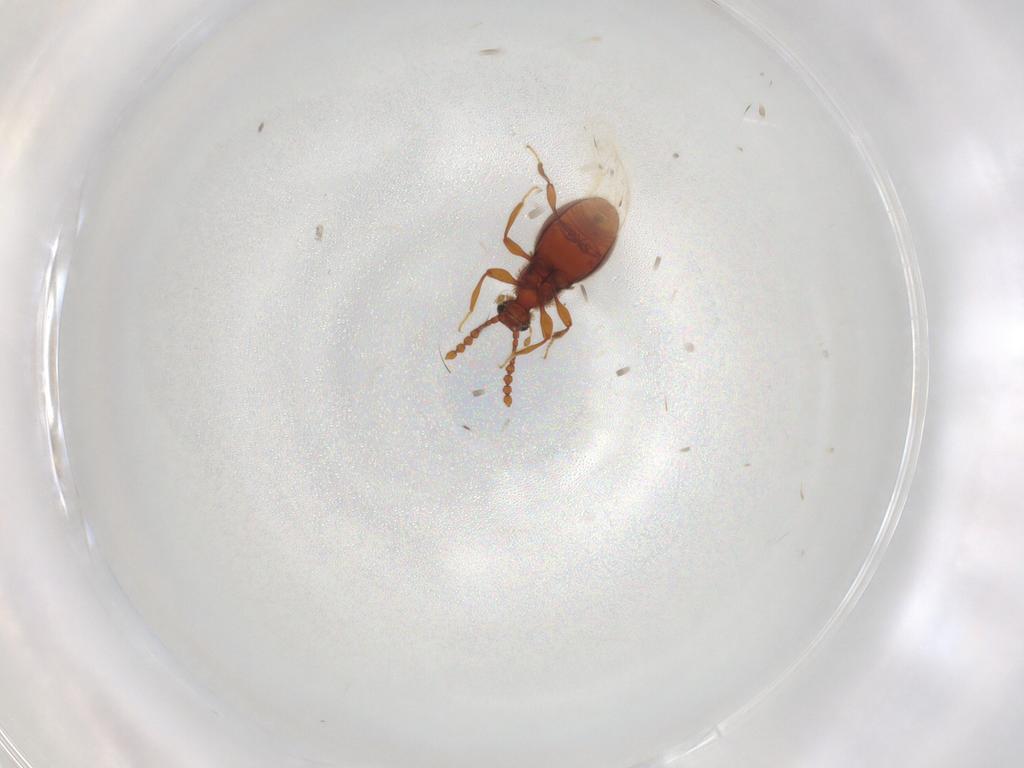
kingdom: Animalia
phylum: Arthropoda
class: Insecta
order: Coleoptera
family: Staphylinidae
